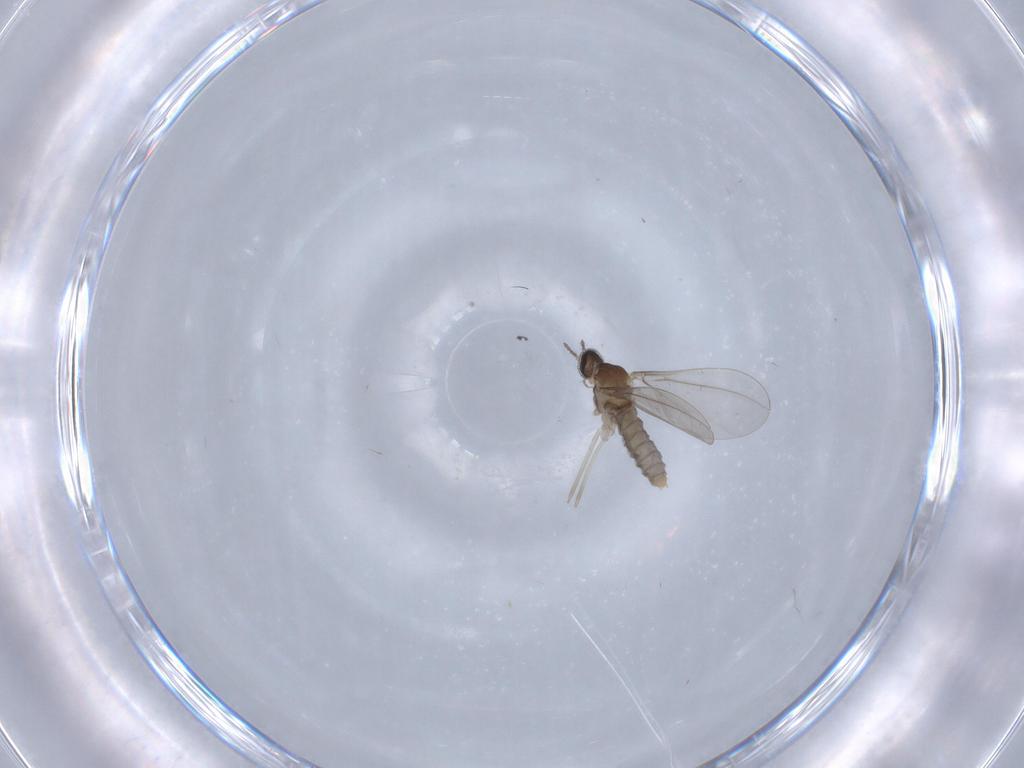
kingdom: Animalia
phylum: Arthropoda
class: Insecta
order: Diptera
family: Cecidomyiidae
